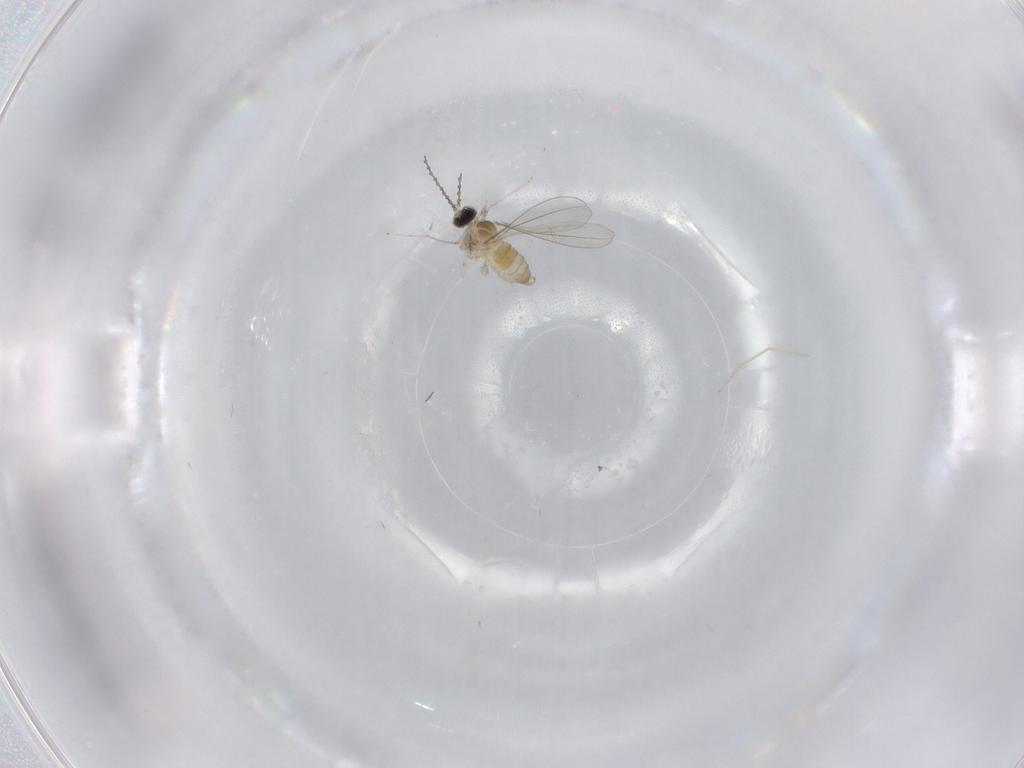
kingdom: Animalia
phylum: Arthropoda
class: Insecta
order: Diptera
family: Cecidomyiidae
